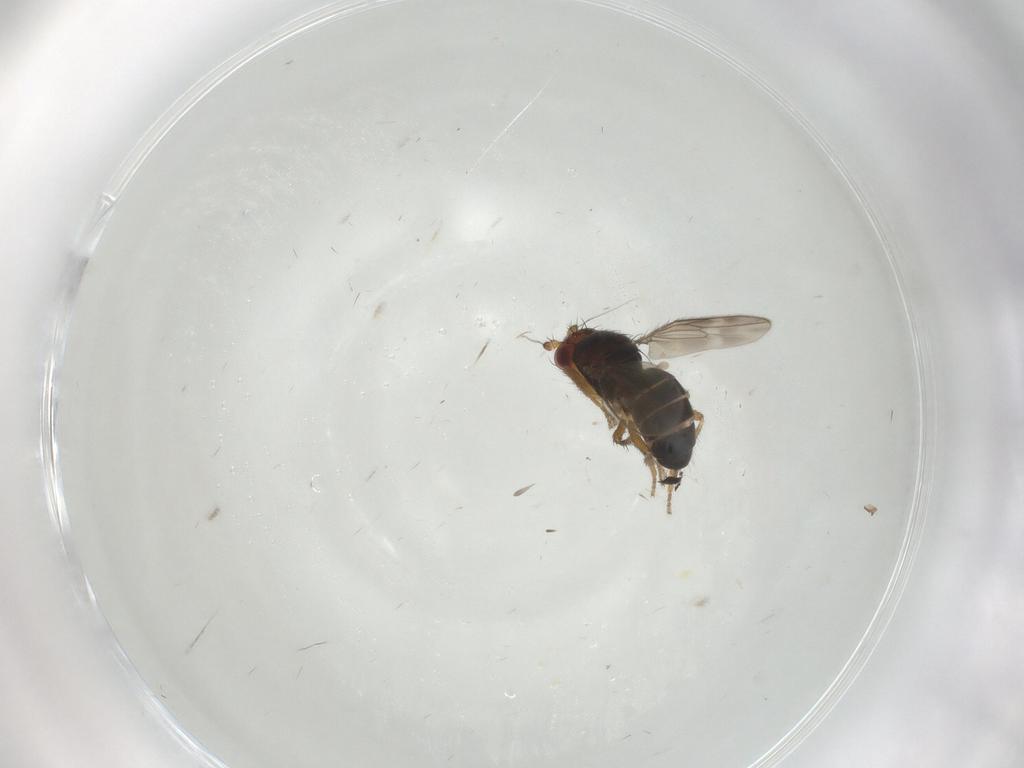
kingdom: Animalia
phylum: Arthropoda
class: Insecta
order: Diptera
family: Sphaeroceridae
